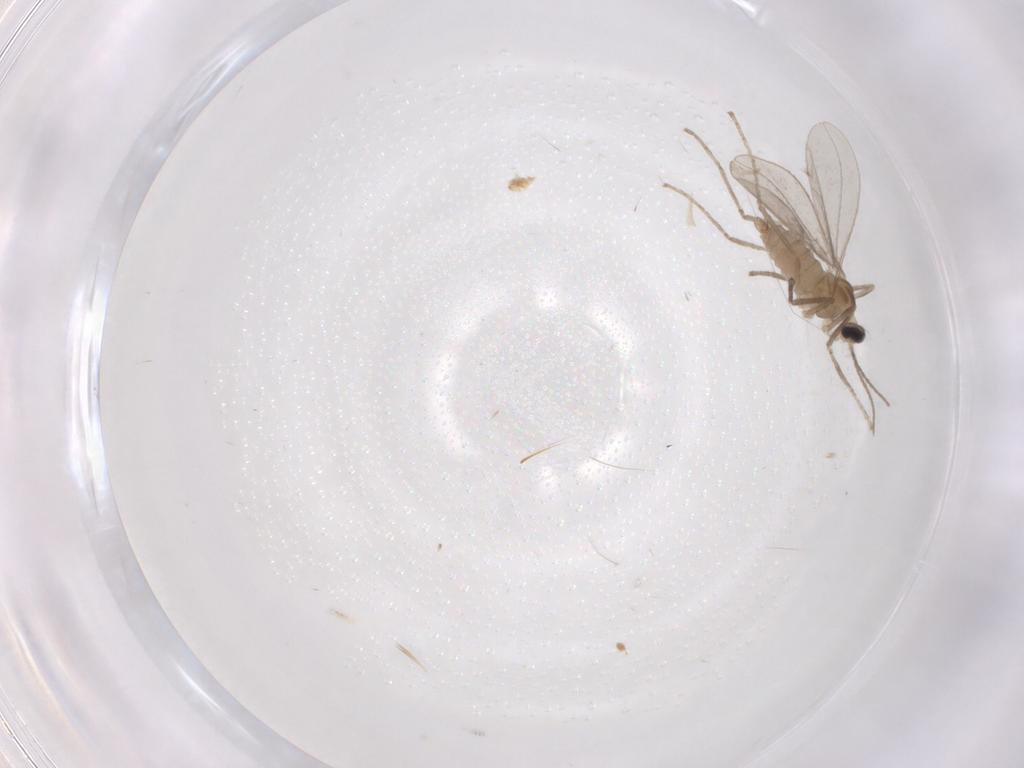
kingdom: Animalia
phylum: Arthropoda
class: Insecta
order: Diptera
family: Cecidomyiidae
